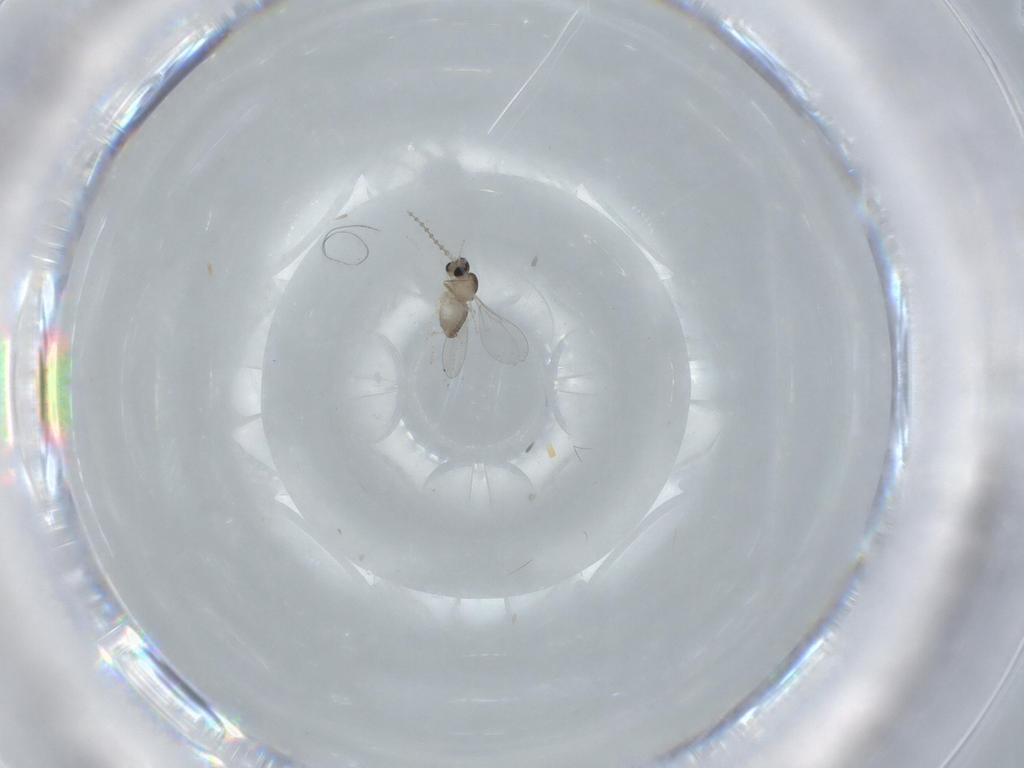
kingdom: Animalia
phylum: Arthropoda
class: Insecta
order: Diptera
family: Cecidomyiidae
